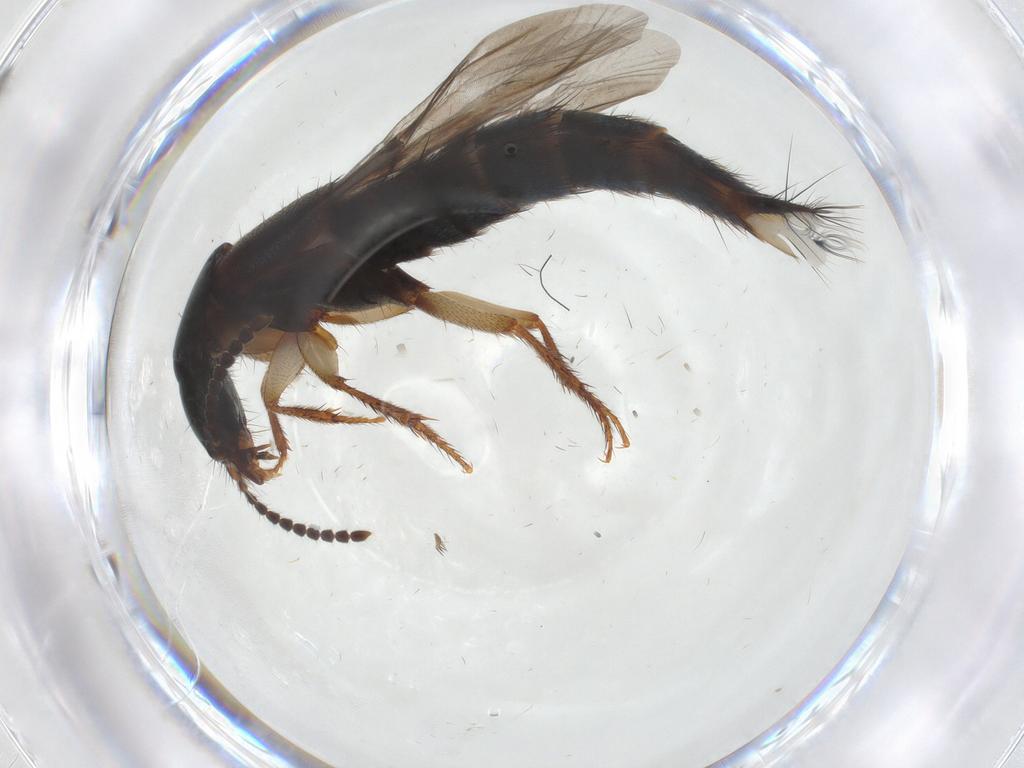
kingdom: Animalia
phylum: Arthropoda
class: Insecta
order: Coleoptera
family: Staphylinidae
